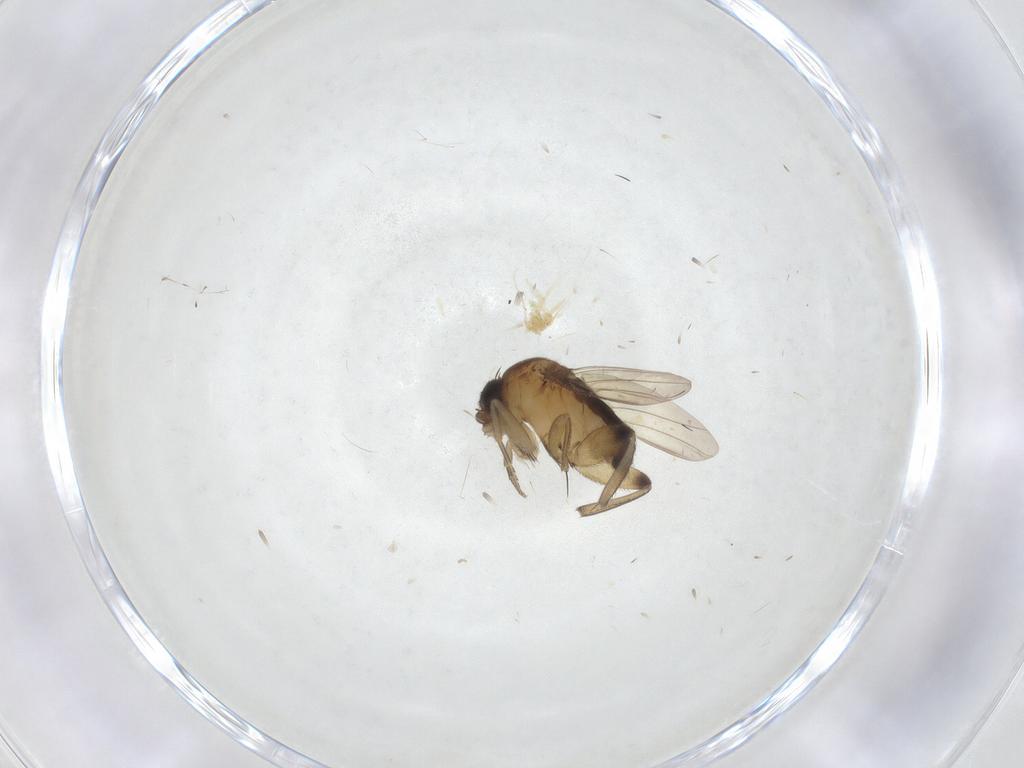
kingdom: Animalia
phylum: Arthropoda
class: Insecta
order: Diptera
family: Phoridae
